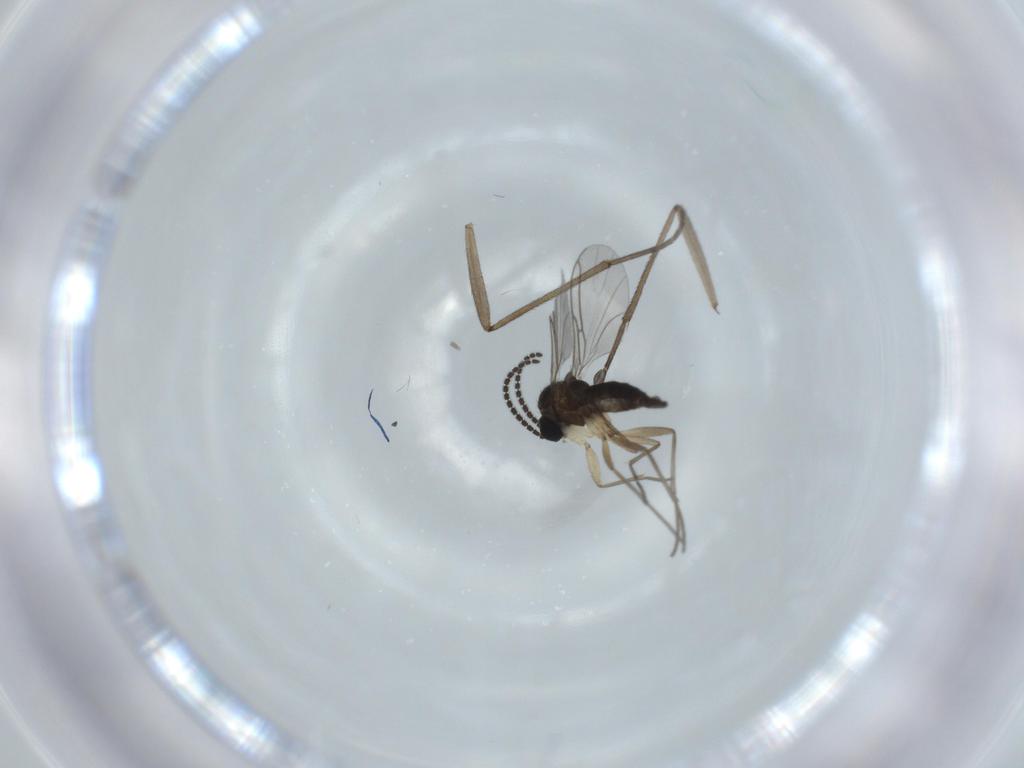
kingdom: Animalia
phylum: Arthropoda
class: Insecta
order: Diptera
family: Sciaridae
